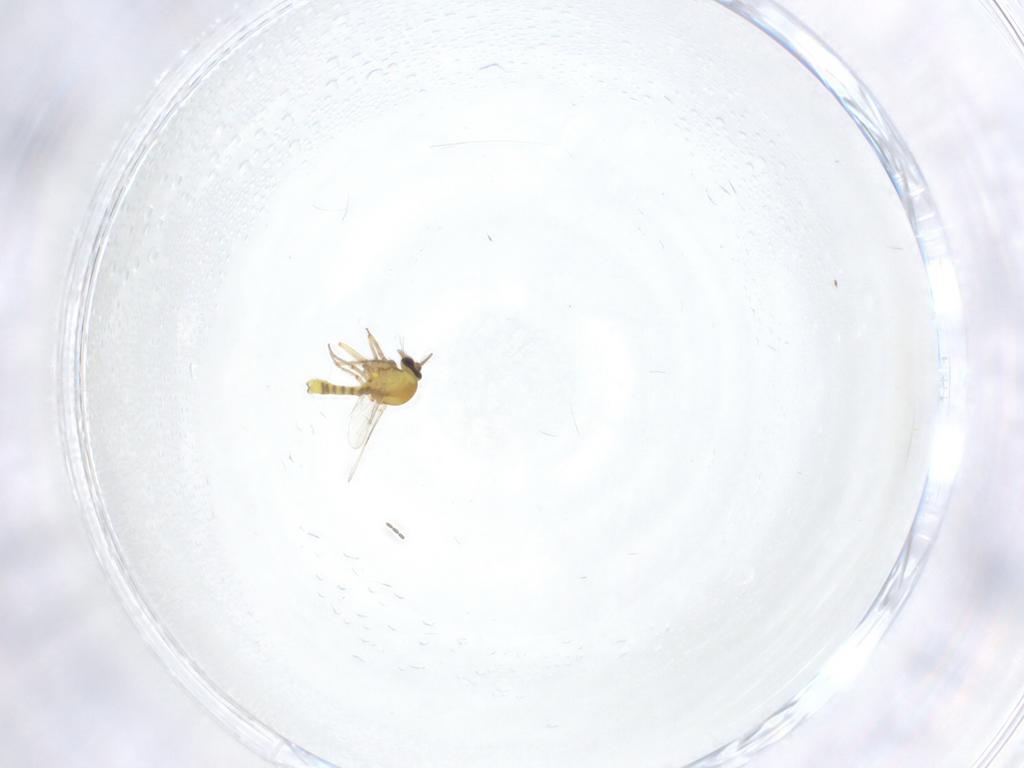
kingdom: Animalia
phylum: Arthropoda
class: Insecta
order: Diptera
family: Ceratopogonidae
